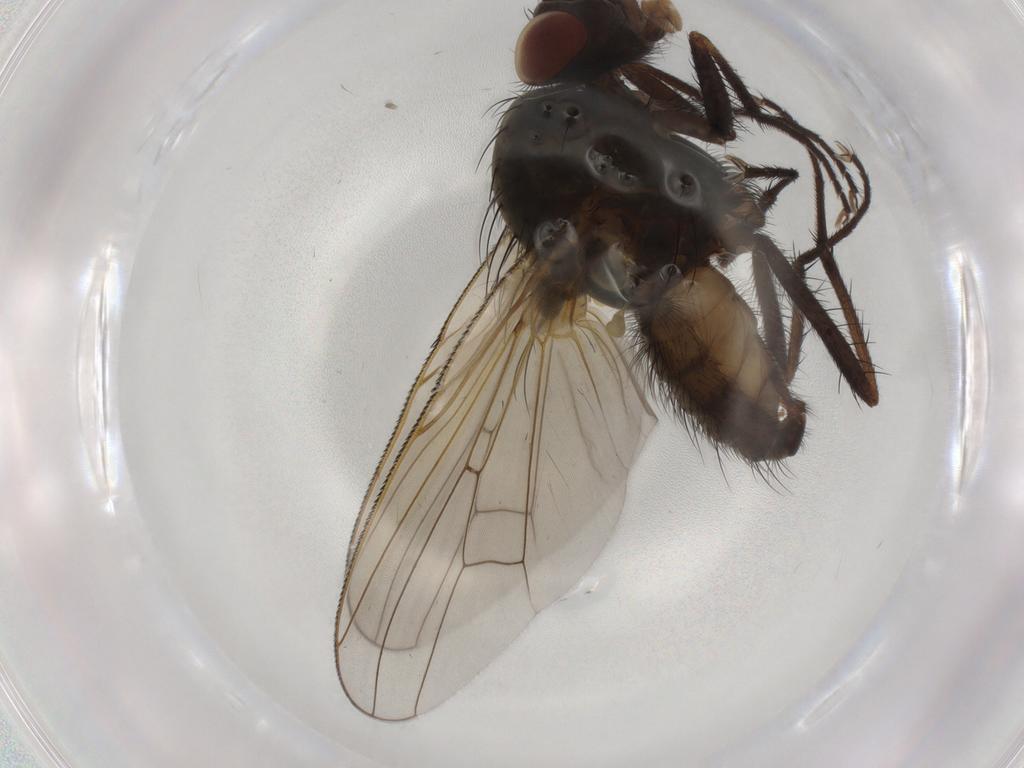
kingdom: Animalia
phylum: Arthropoda
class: Insecta
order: Diptera
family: Anthomyiidae
